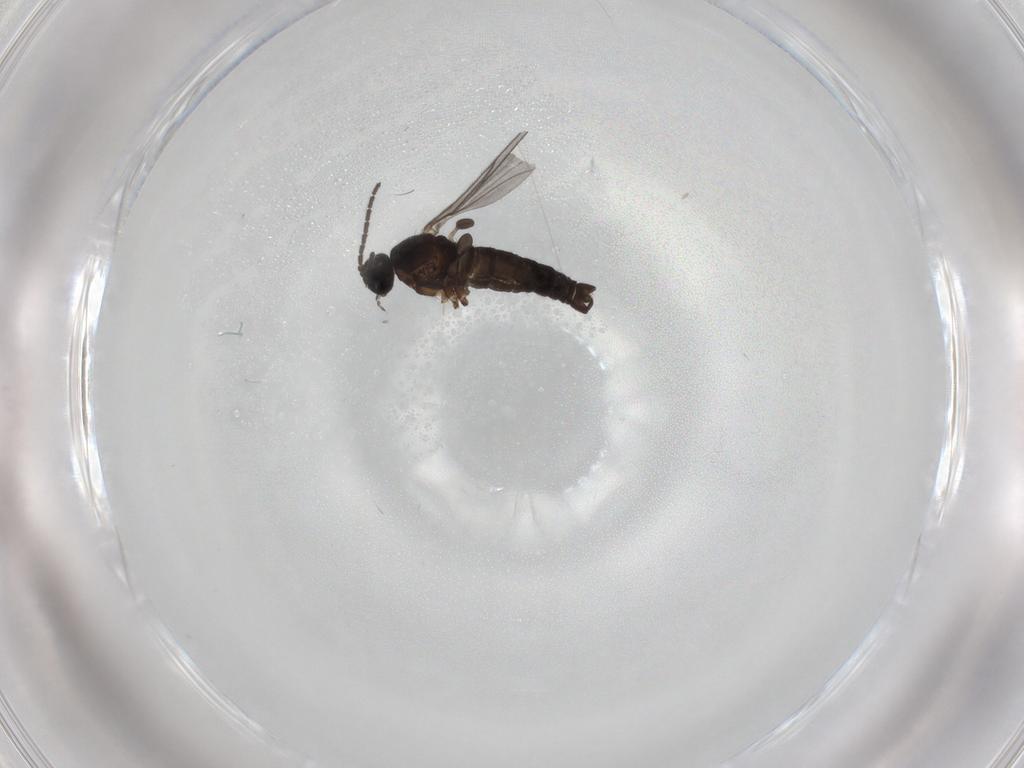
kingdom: Animalia
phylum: Arthropoda
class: Insecta
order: Diptera
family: Sciaridae
